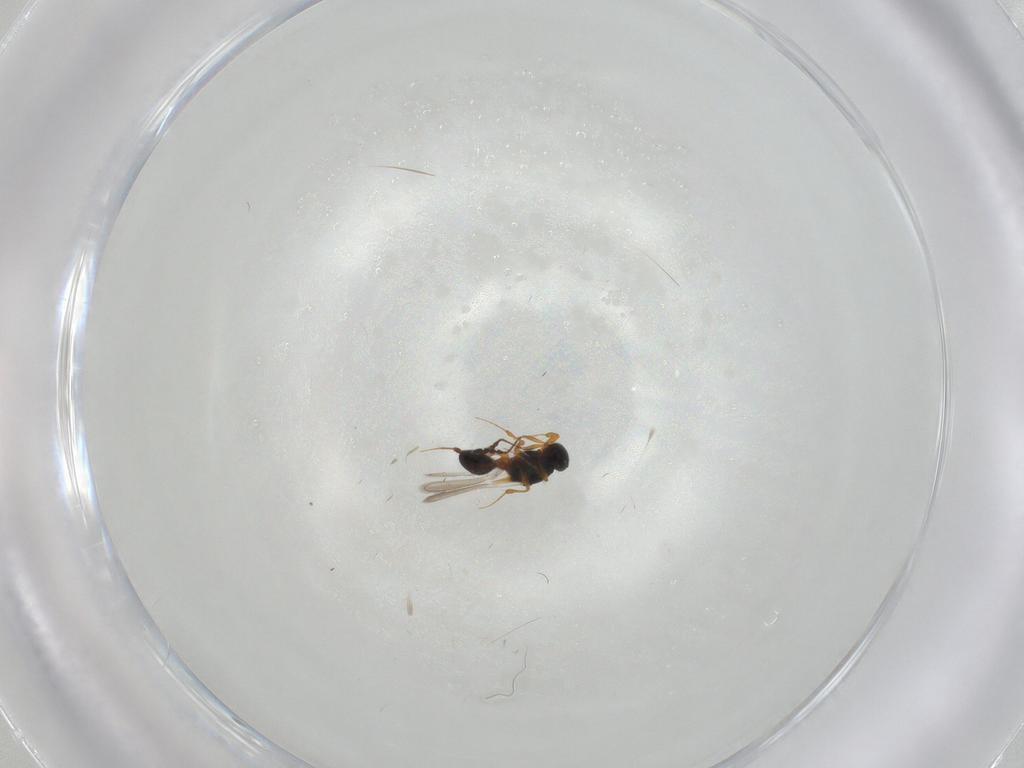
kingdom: Animalia
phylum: Arthropoda
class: Insecta
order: Hymenoptera
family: Platygastridae
